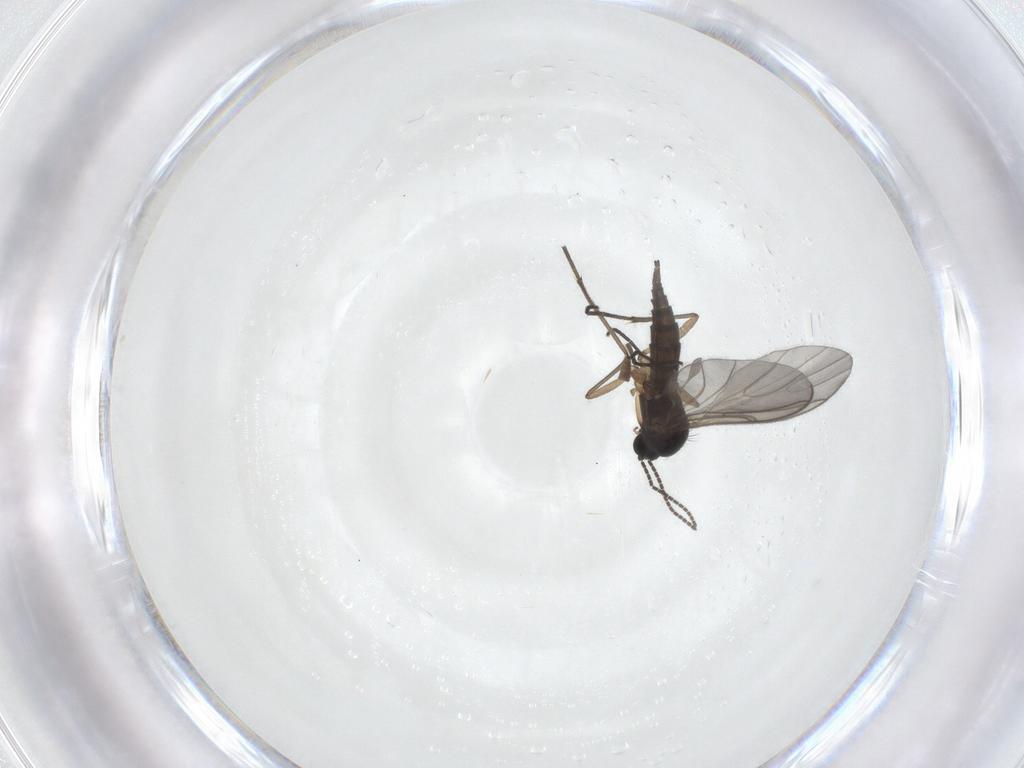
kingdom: Animalia
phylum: Arthropoda
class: Insecta
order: Diptera
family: Sciaridae
